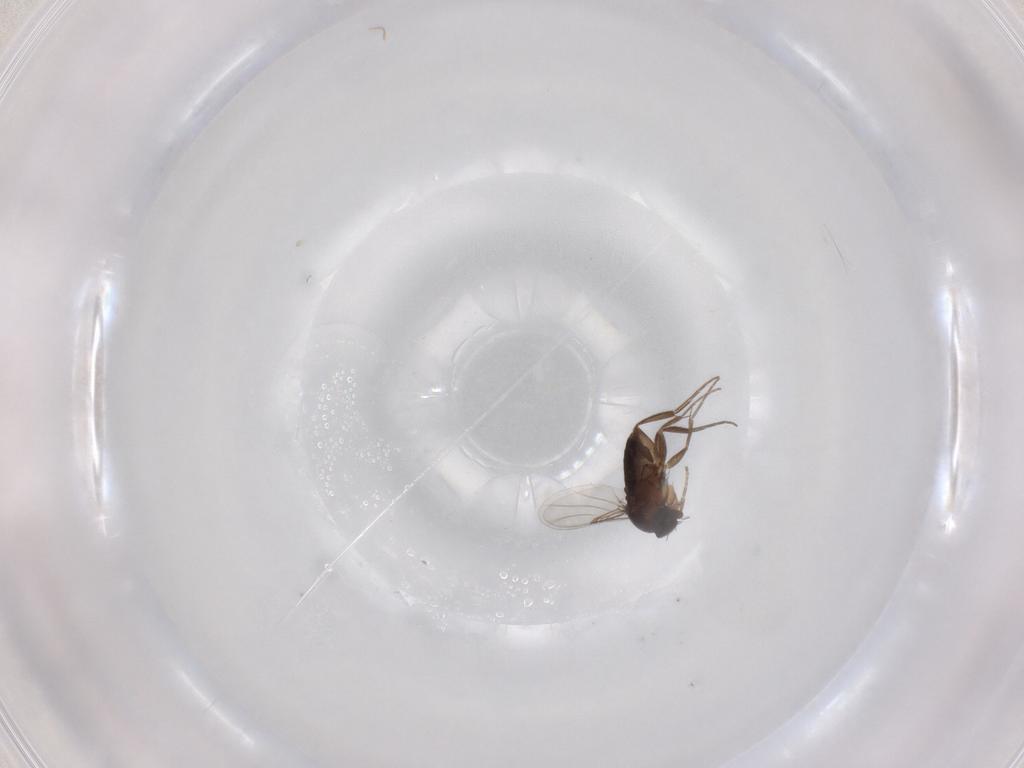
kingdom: Animalia
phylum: Arthropoda
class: Insecta
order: Diptera
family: Phoridae
